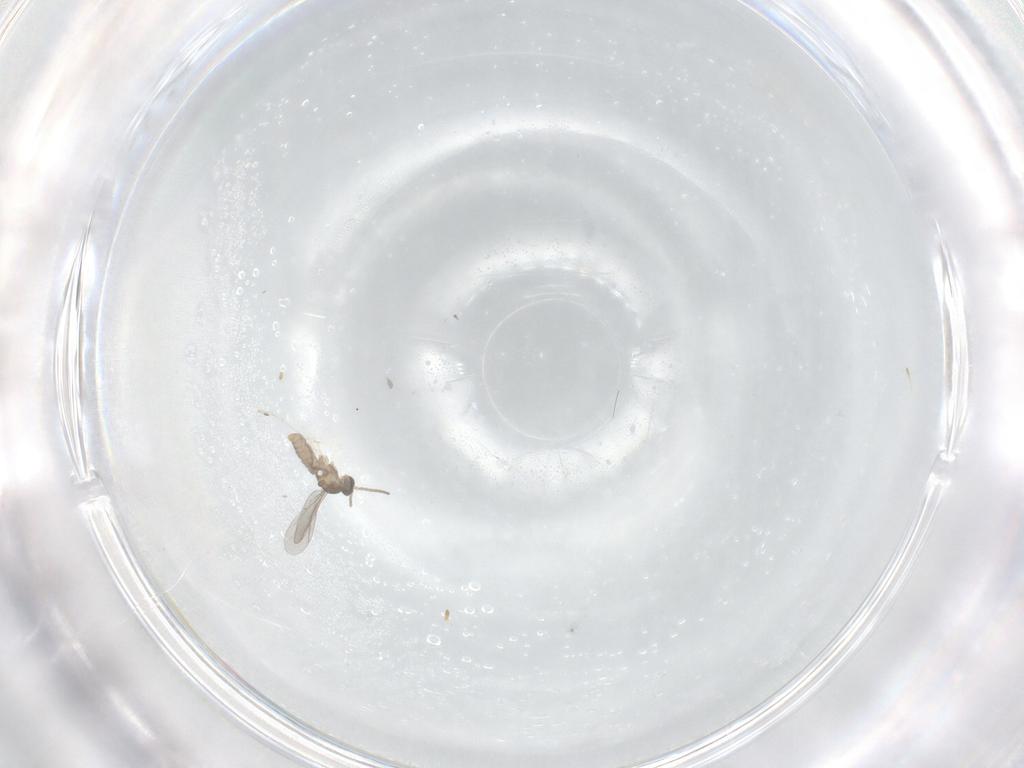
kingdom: Animalia
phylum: Arthropoda
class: Insecta
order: Diptera
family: Cecidomyiidae
